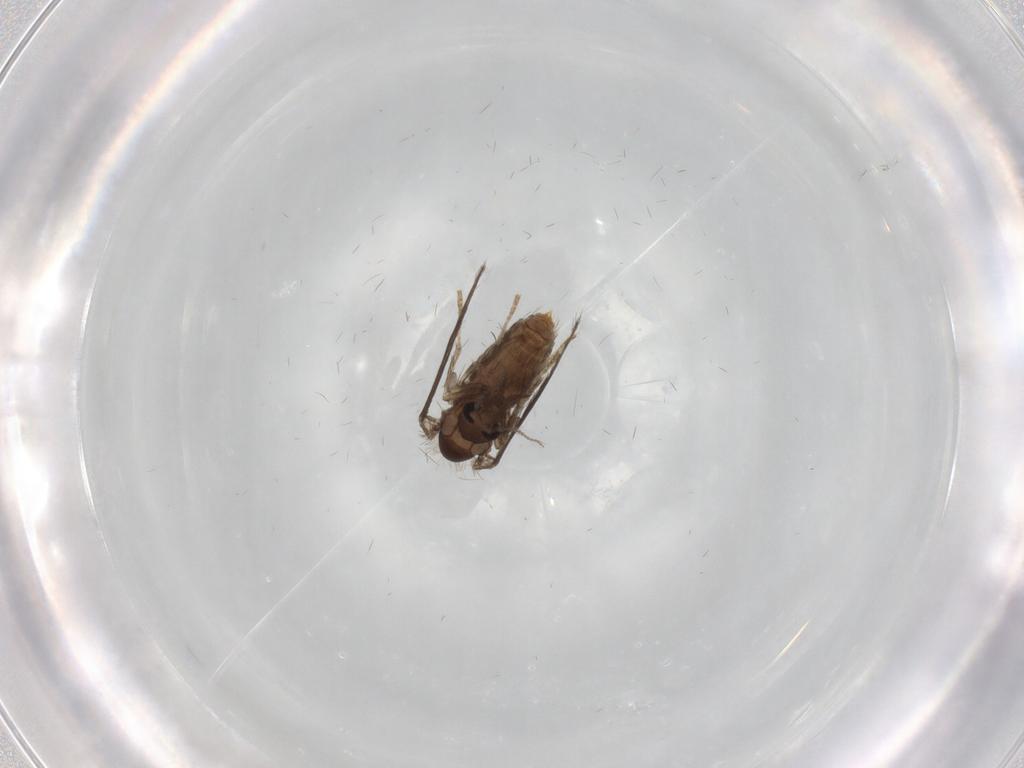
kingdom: Animalia
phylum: Arthropoda
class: Insecta
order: Diptera
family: Psychodidae
